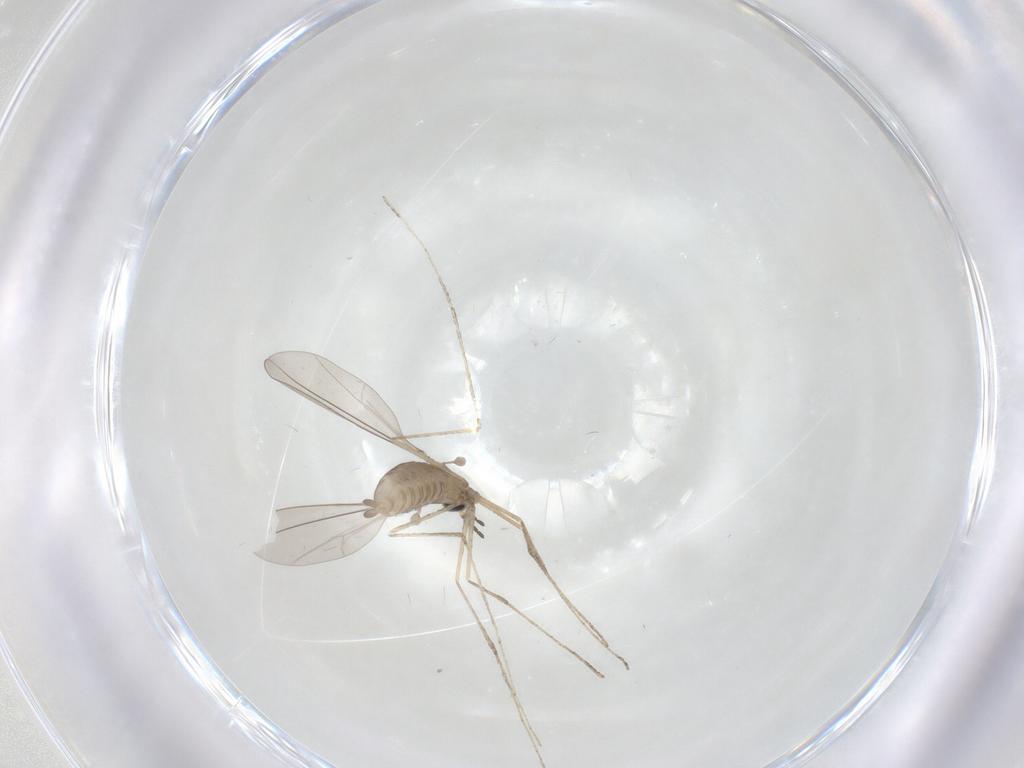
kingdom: Animalia
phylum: Arthropoda
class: Insecta
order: Diptera
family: Cecidomyiidae
